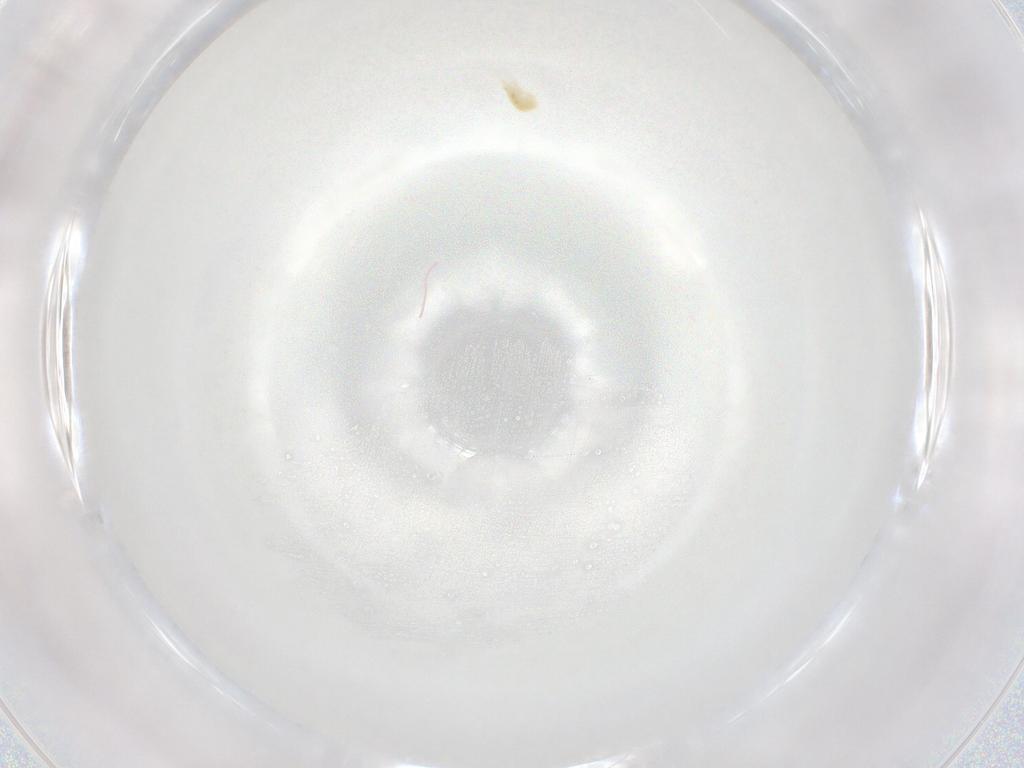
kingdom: Animalia
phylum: Arthropoda
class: Arachnida
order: Trombidiformes
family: Eupodidae
